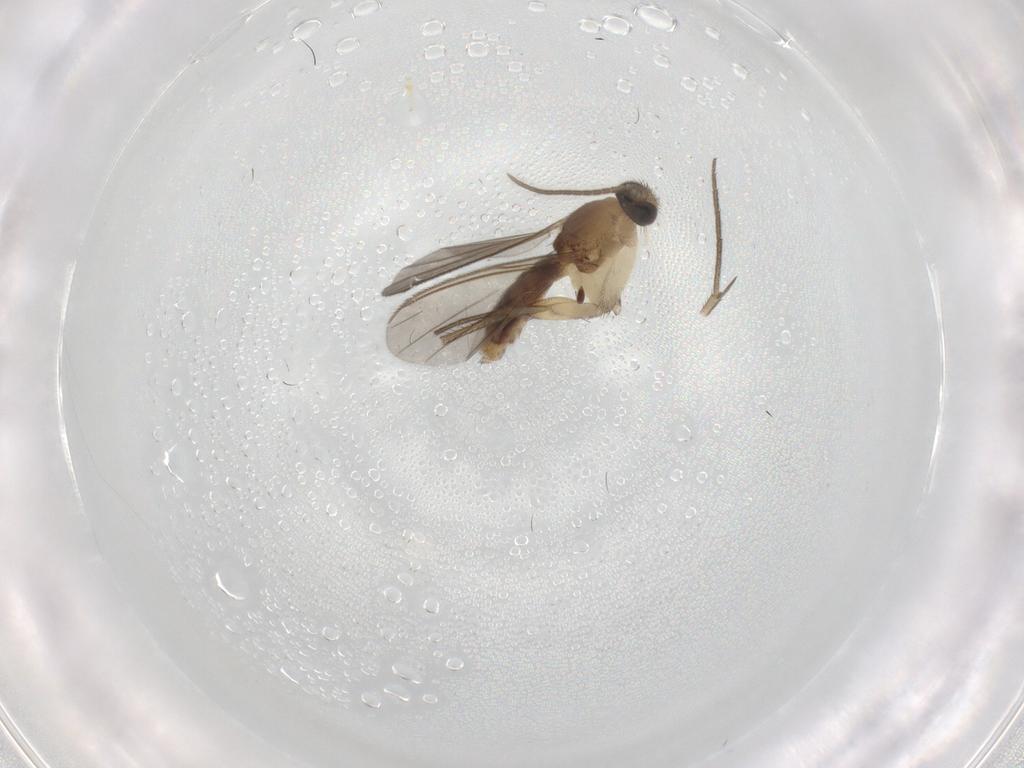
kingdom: Animalia
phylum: Arthropoda
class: Insecta
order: Diptera
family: Mycetophilidae
